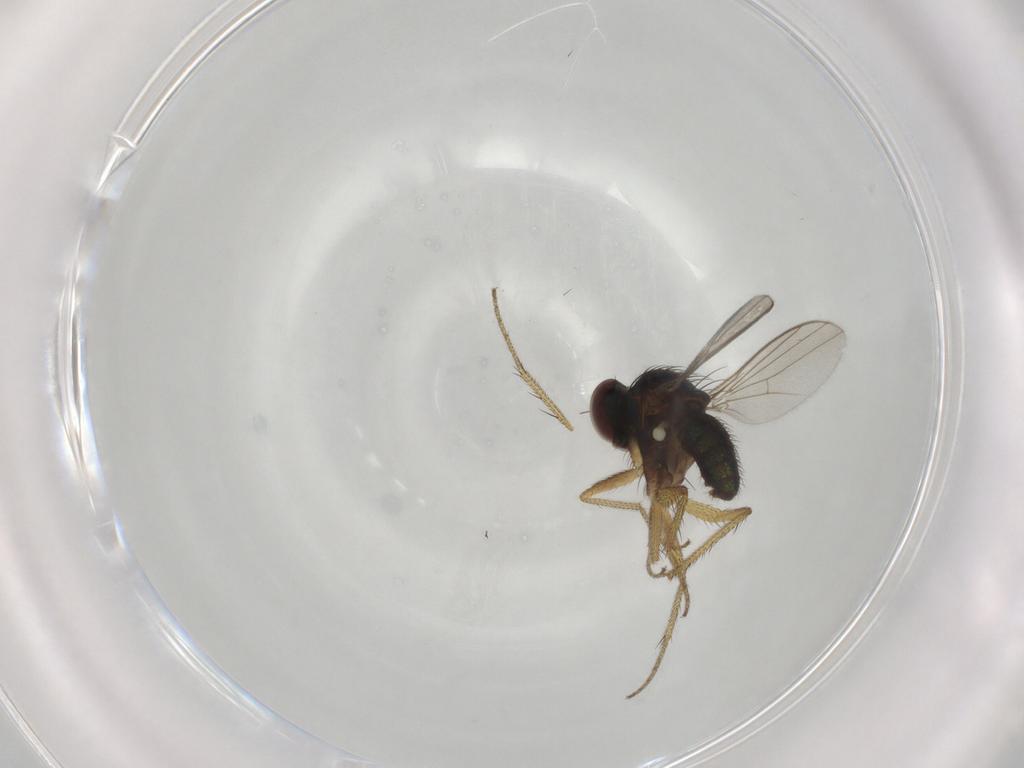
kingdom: Animalia
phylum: Arthropoda
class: Insecta
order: Diptera
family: Dolichopodidae
